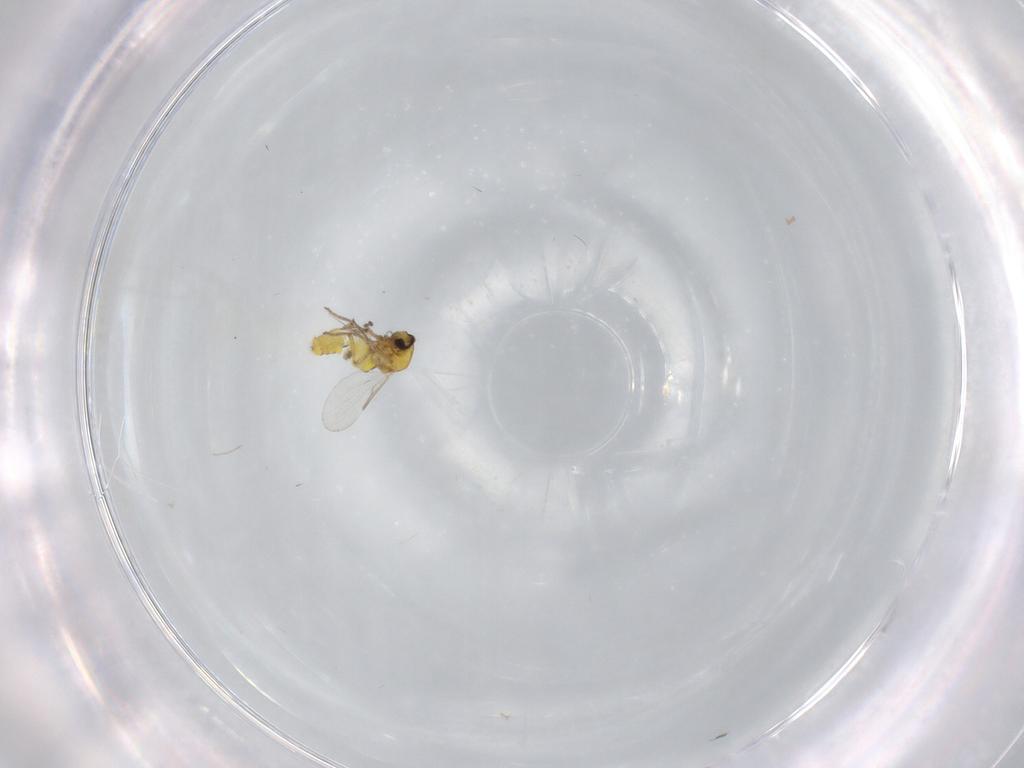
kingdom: Animalia
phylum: Arthropoda
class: Insecta
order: Diptera
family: Ceratopogonidae
